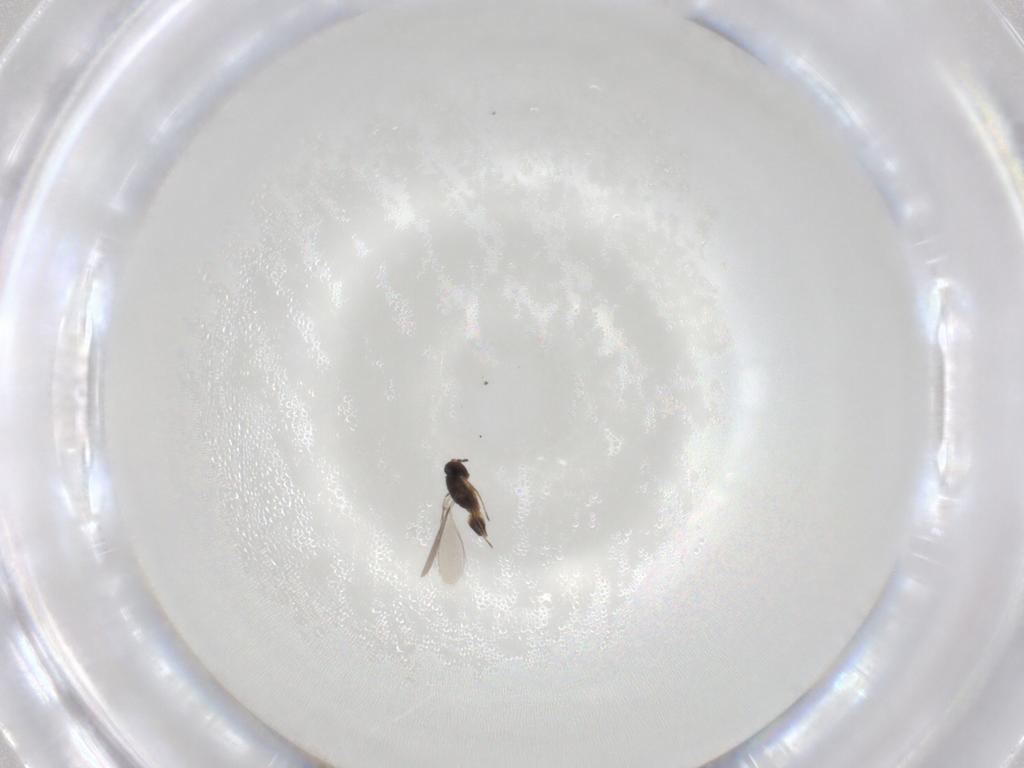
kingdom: Animalia
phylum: Arthropoda
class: Insecta
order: Hymenoptera
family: Mymaridae
